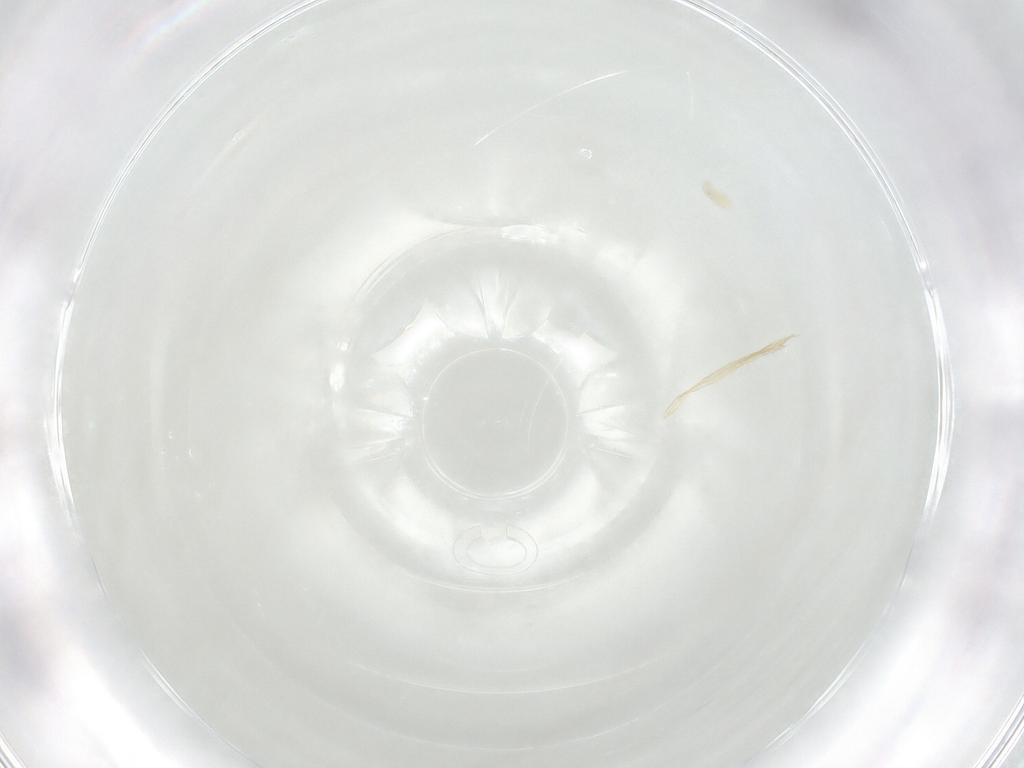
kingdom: Animalia
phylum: Arthropoda
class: Arachnida
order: Trombidiformes
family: Eupodidae
